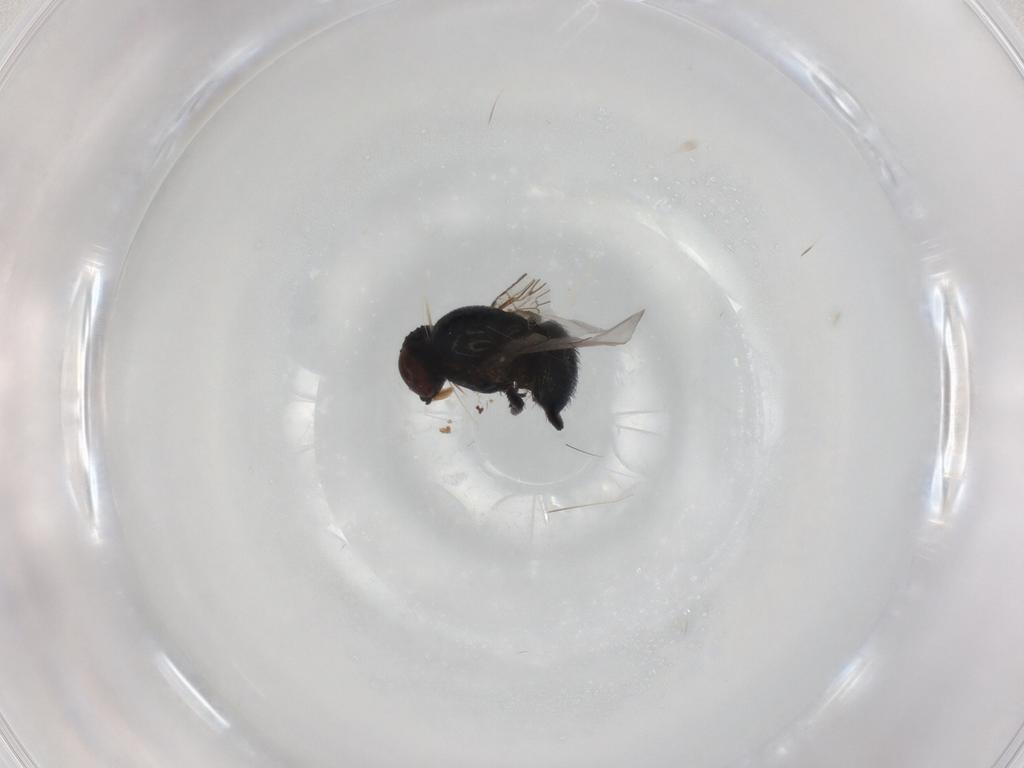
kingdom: Animalia
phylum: Arthropoda
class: Insecta
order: Diptera
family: Agromyzidae
